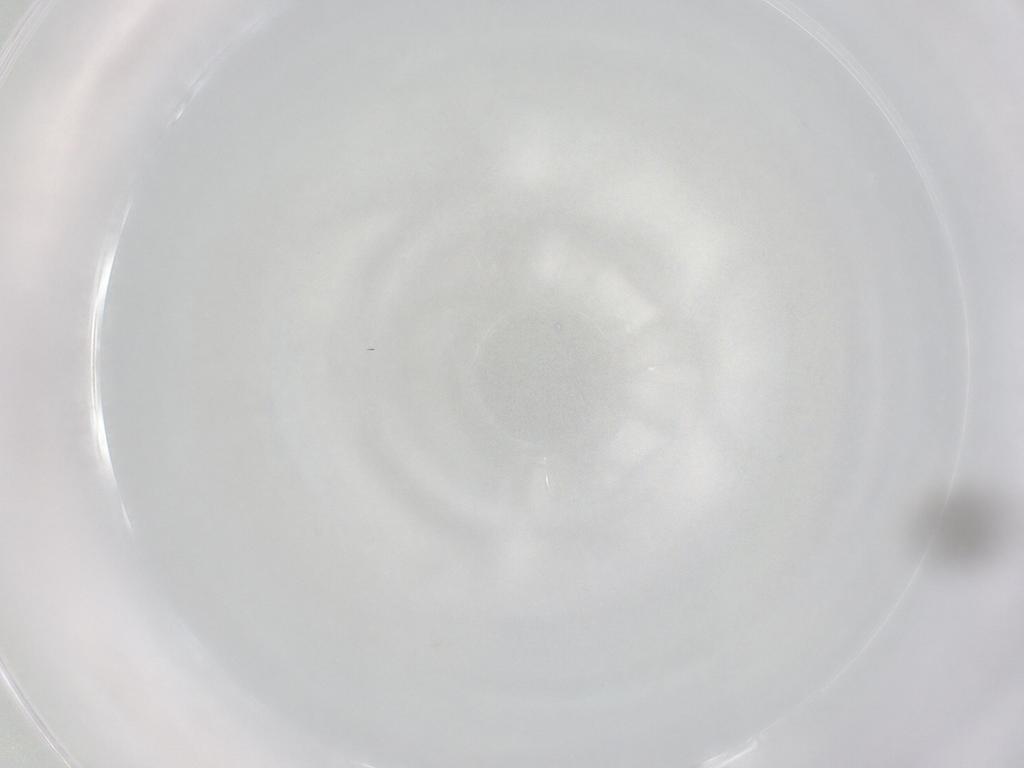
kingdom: Animalia
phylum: Arthropoda
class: Insecta
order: Hymenoptera
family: Scelionidae
